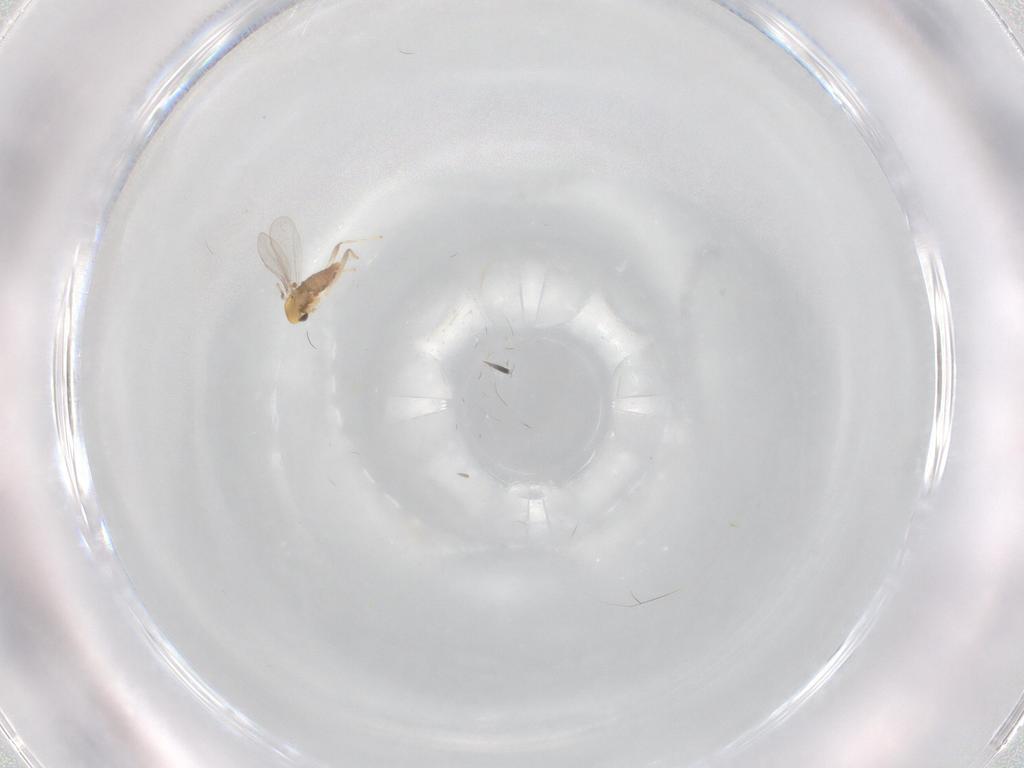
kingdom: Animalia
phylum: Arthropoda
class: Insecta
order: Diptera
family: Chironomidae
